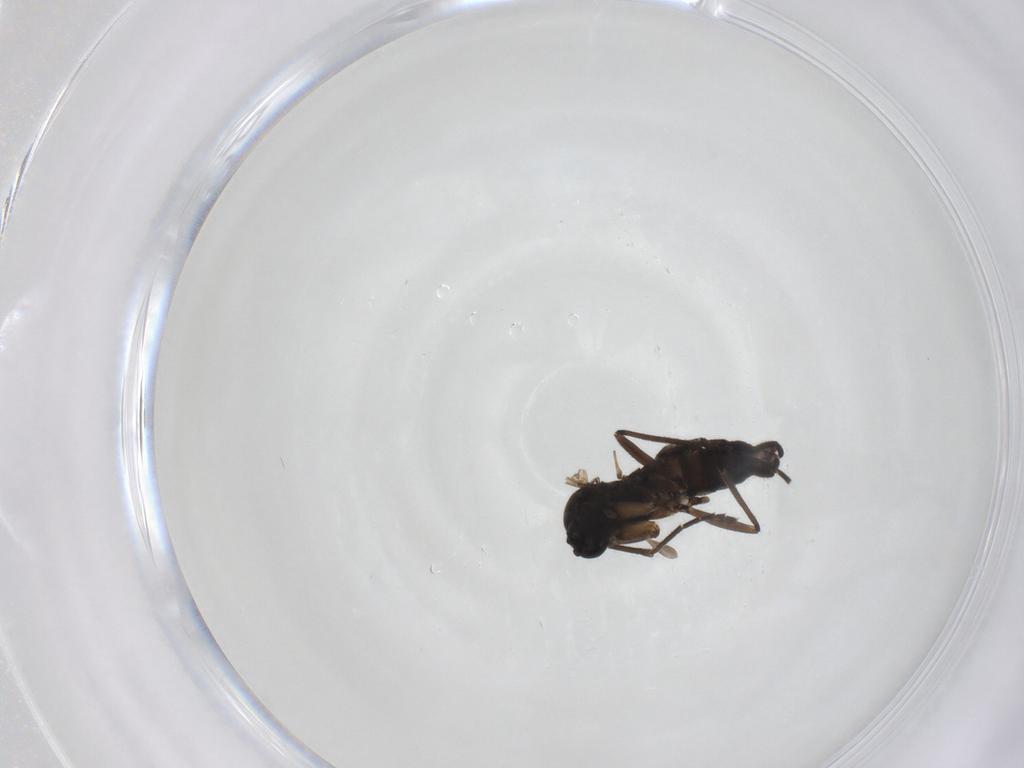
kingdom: Animalia
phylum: Arthropoda
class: Insecta
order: Diptera
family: Sciaridae
